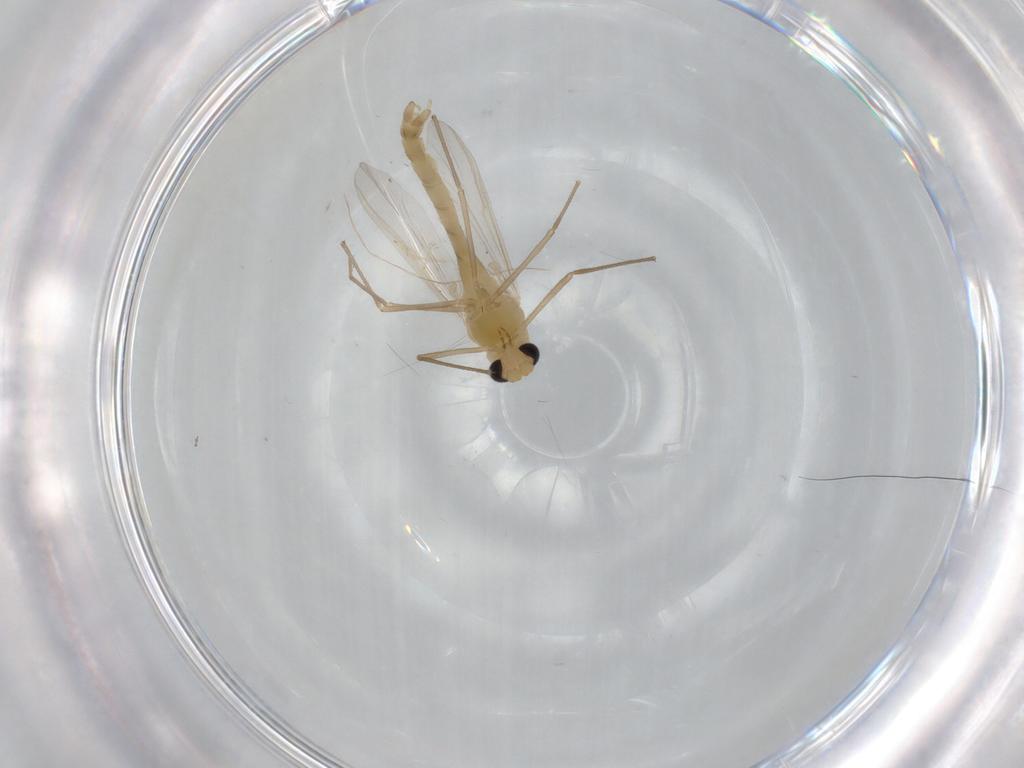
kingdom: Animalia
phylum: Arthropoda
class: Insecta
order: Diptera
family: Chironomidae
